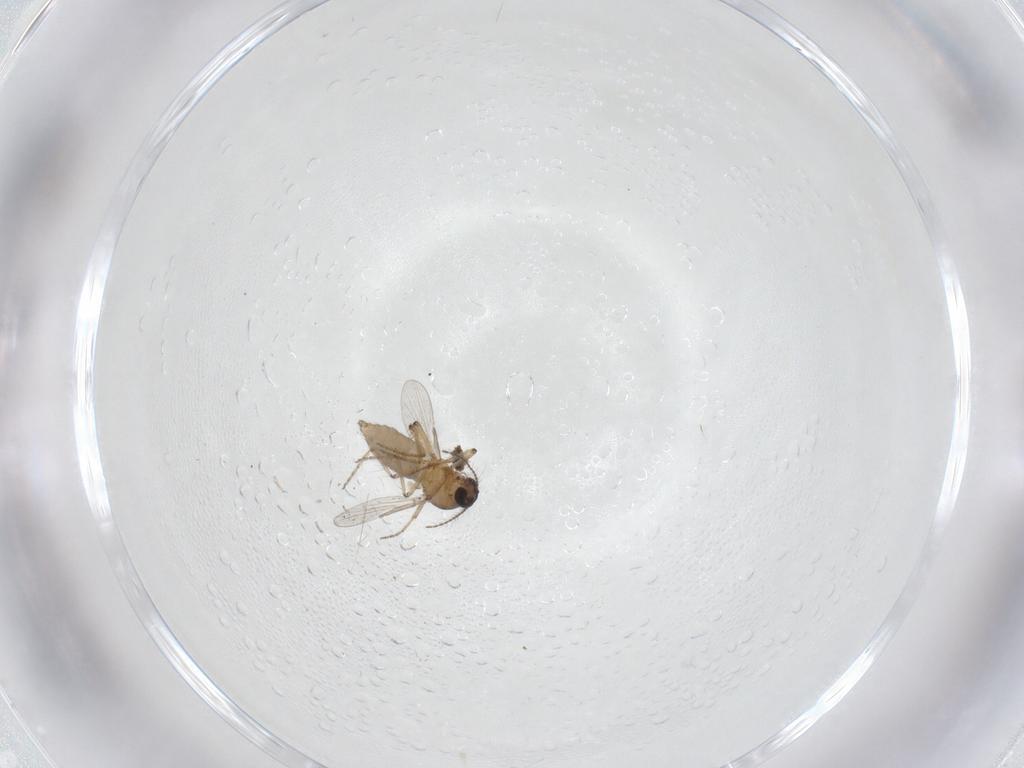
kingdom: Animalia
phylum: Arthropoda
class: Insecta
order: Diptera
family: Ceratopogonidae
